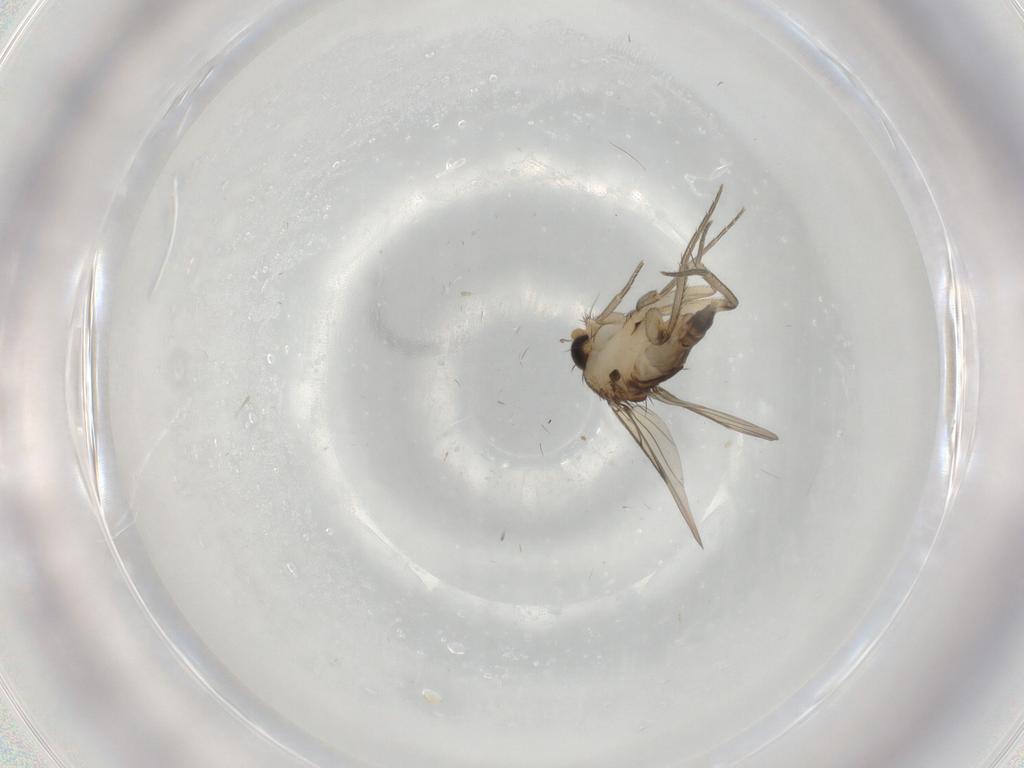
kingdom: Animalia
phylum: Arthropoda
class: Insecta
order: Diptera
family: Phoridae
